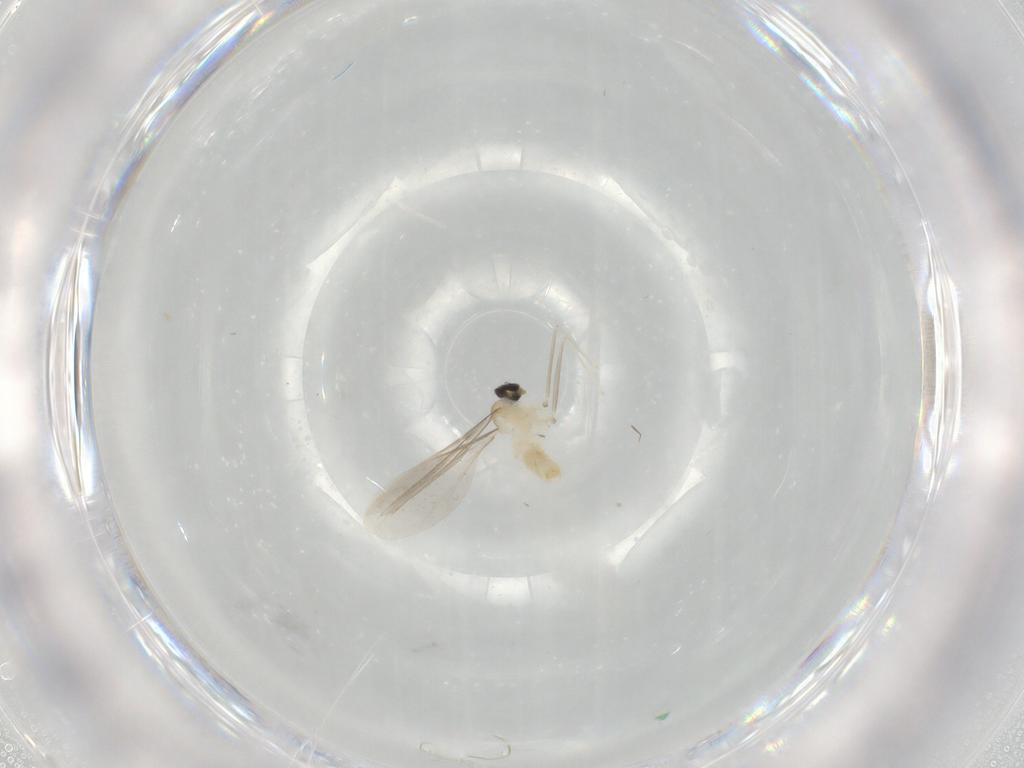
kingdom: Animalia
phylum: Arthropoda
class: Insecta
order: Diptera
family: Cecidomyiidae
